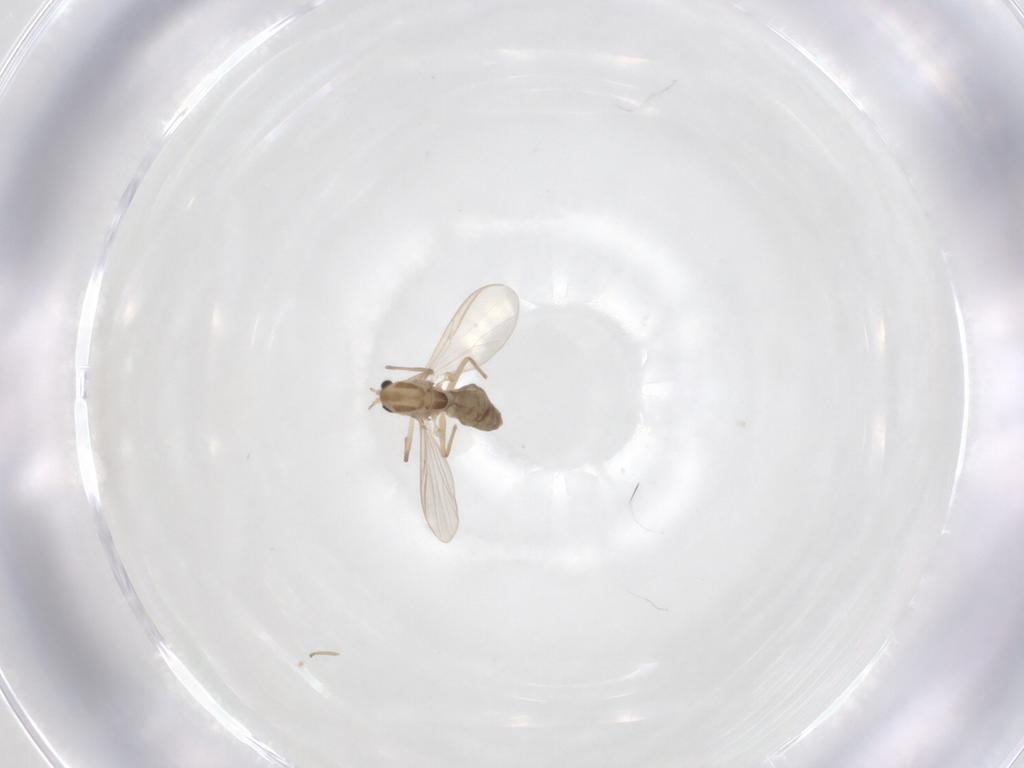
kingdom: Animalia
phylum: Arthropoda
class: Insecta
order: Diptera
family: Chironomidae
